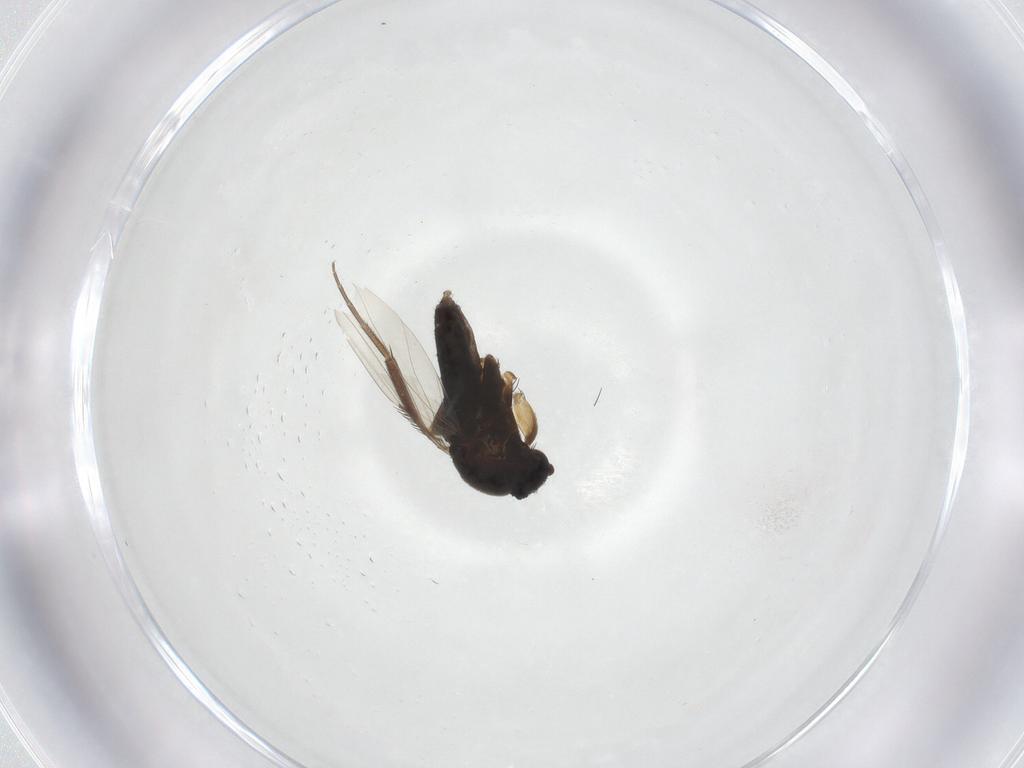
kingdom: Animalia
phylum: Arthropoda
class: Insecta
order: Diptera
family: Phoridae
